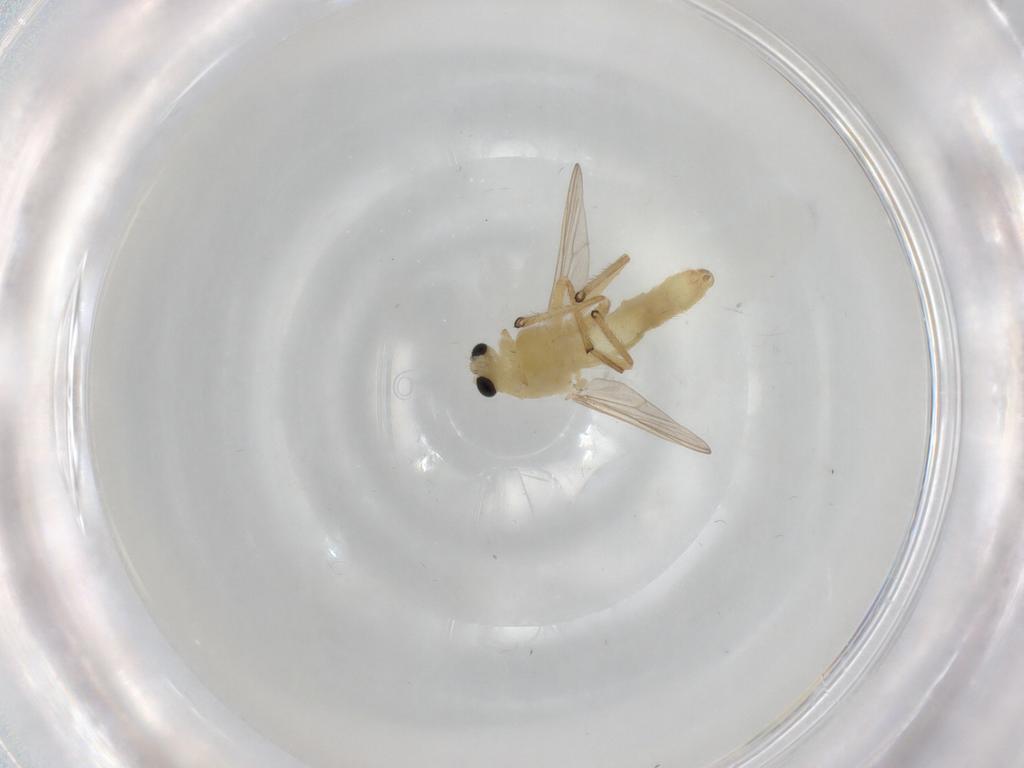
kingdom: Animalia
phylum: Arthropoda
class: Insecta
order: Diptera
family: Chironomidae
